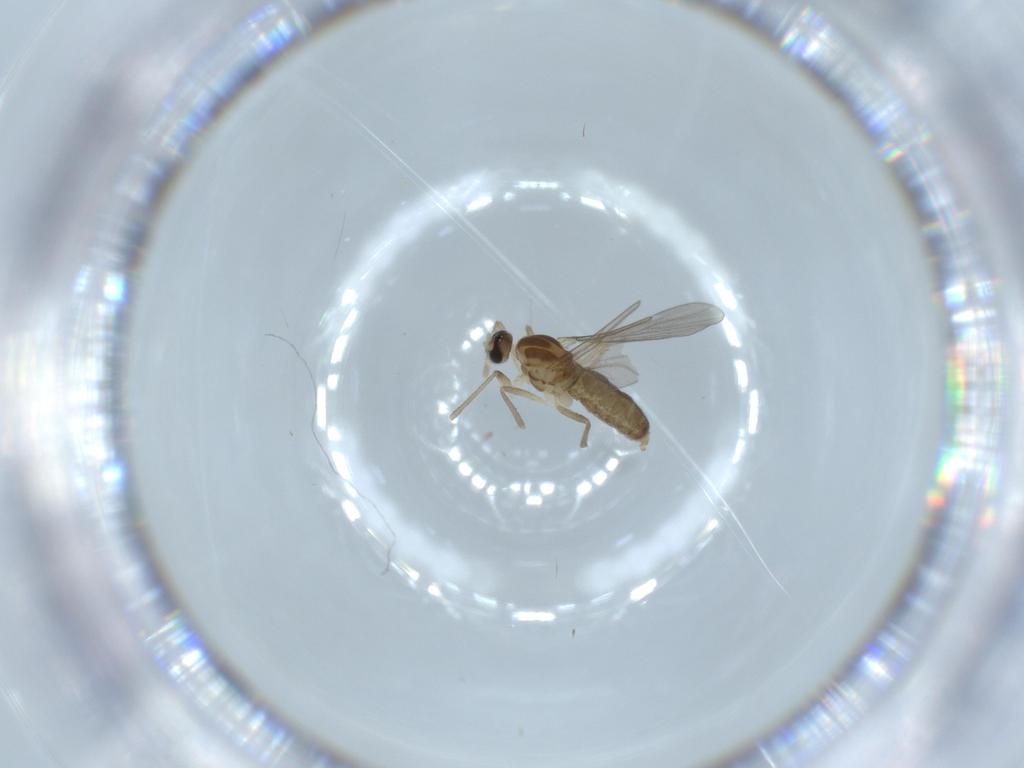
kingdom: Animalia
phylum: Arthropoda
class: Insecta
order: Diptera
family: Cecidomyiidae
